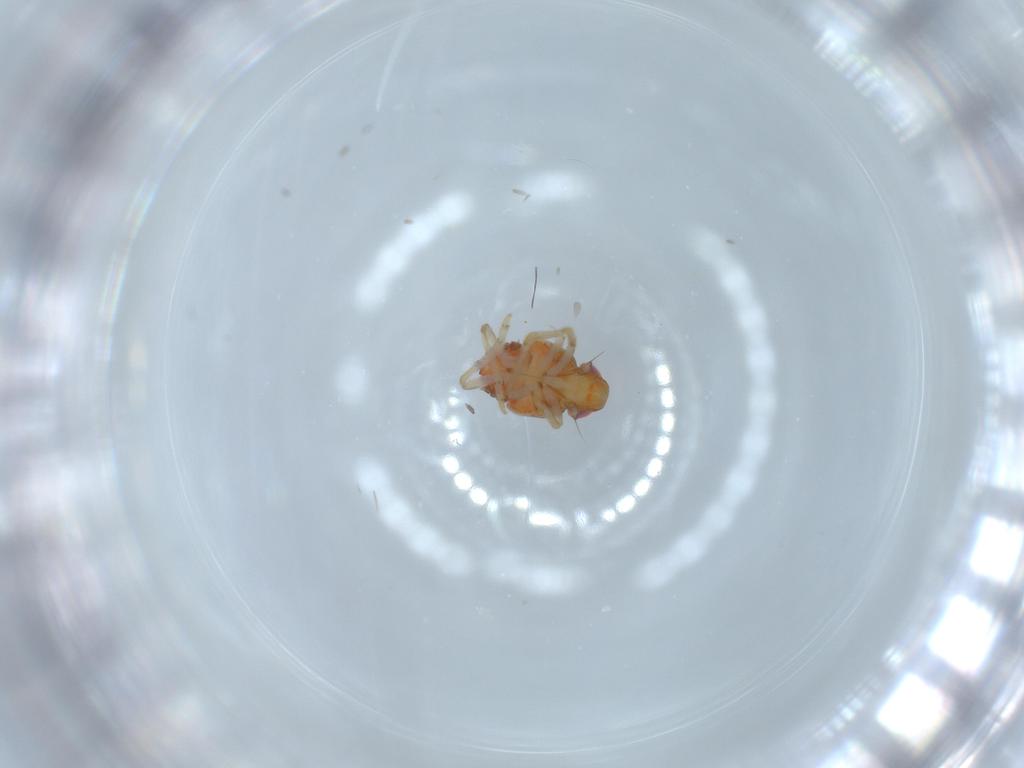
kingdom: Animalia
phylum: Arthropoda
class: Insecta
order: Hemiptera
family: Issidae
